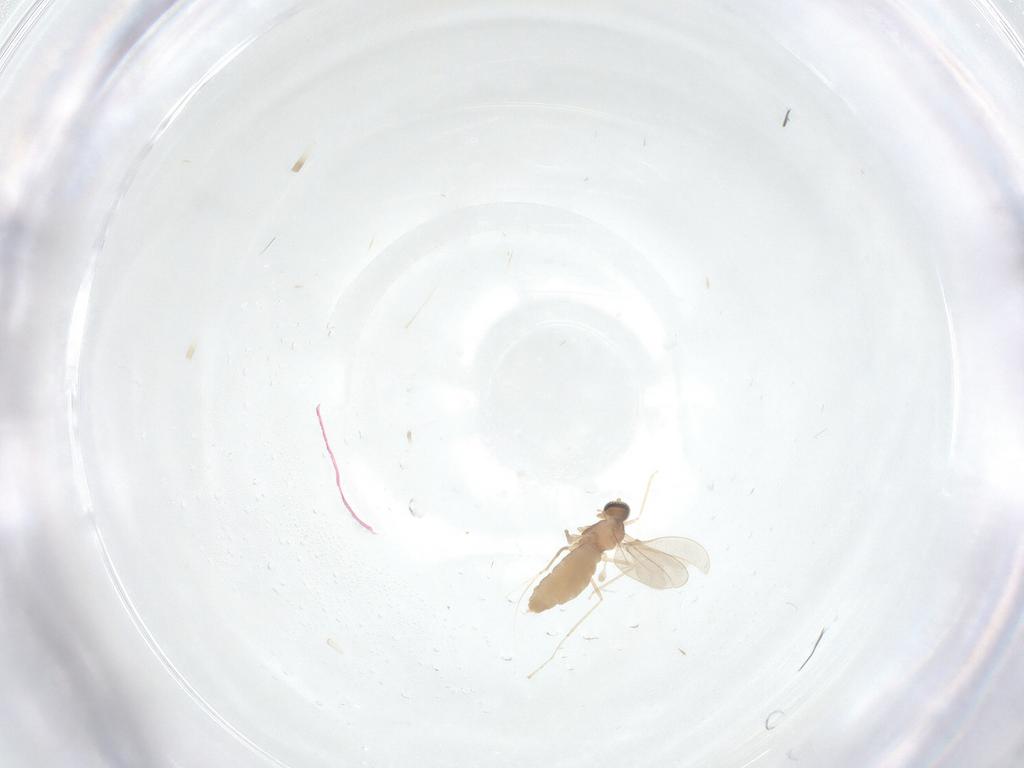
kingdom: Animalia
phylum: Arthropoda
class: Insecta
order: Diptera
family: Cecidomyiidae
